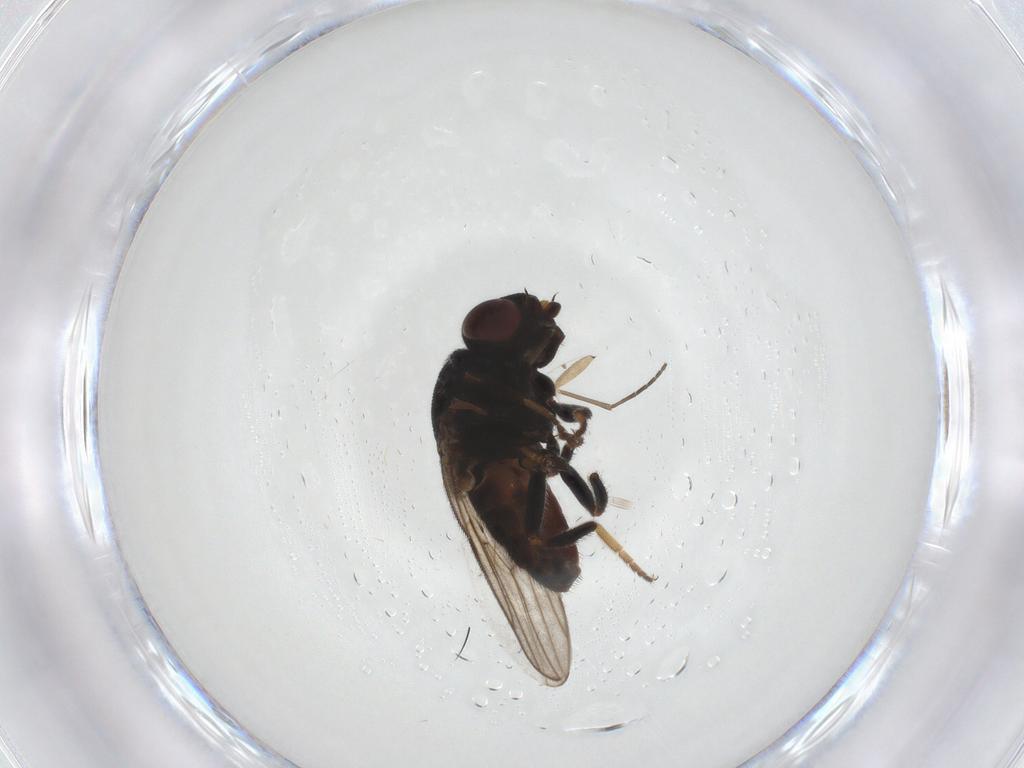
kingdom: Animalia
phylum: Arthropoda
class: Insecta
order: Diptera
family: Chloropidae
